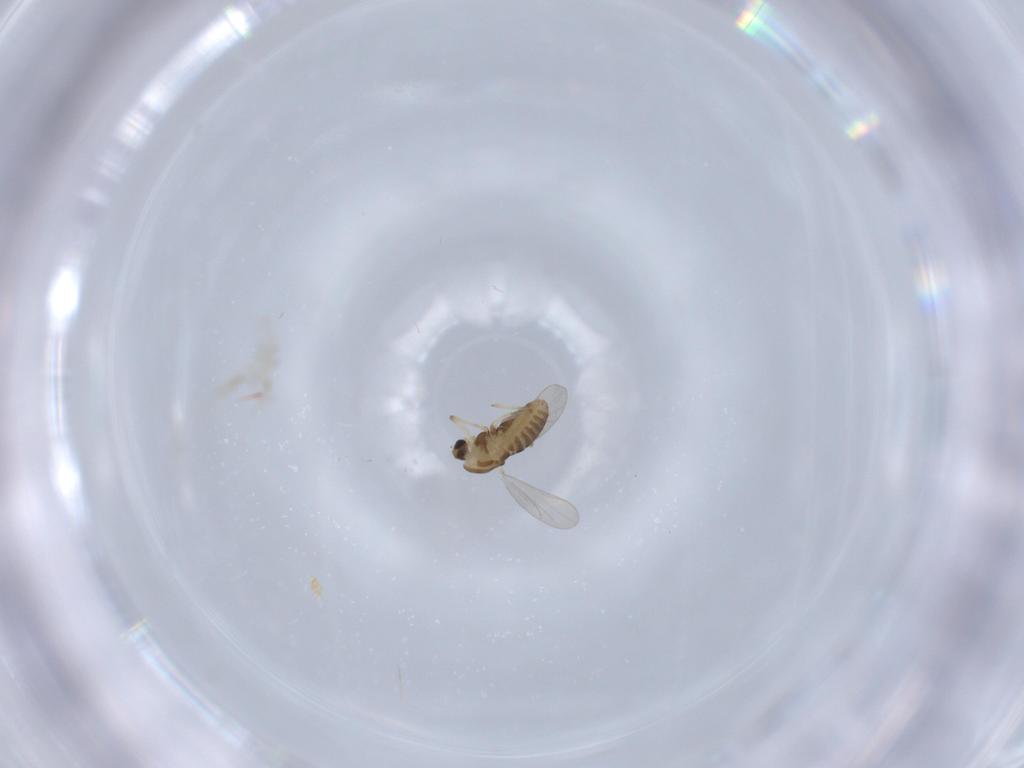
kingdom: Animalia
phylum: Arthropoda
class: Insecta
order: Diptera
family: Chironomidae
